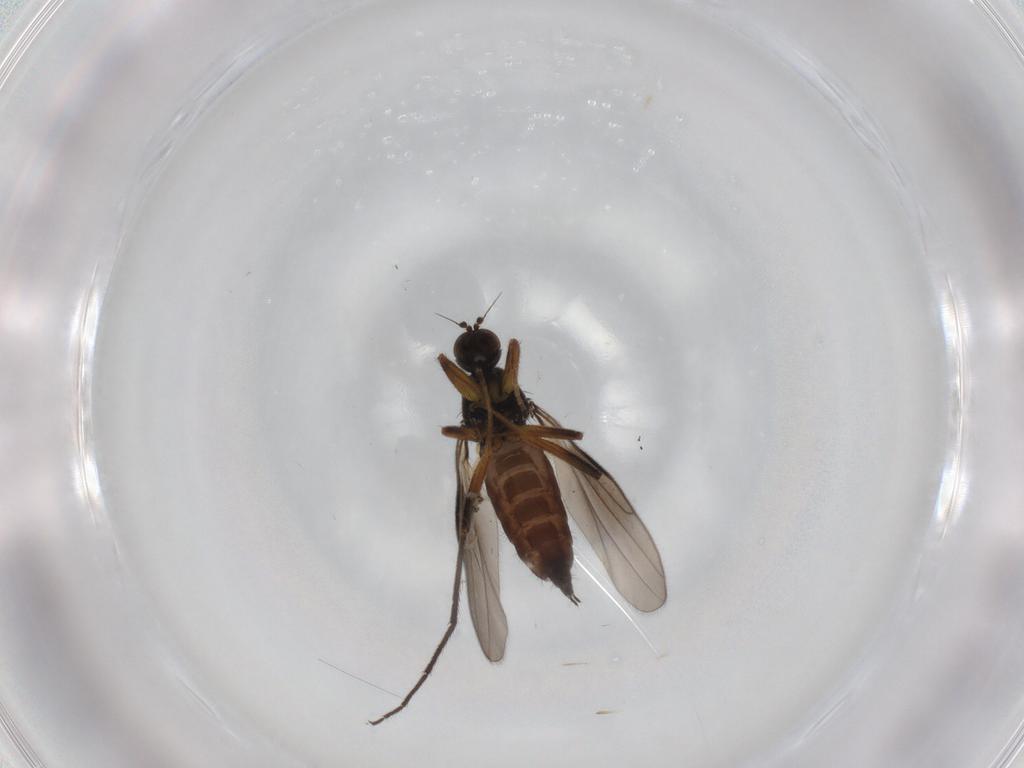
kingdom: Animalia
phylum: Arthropoda
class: Insecta
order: Diptera
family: Hybotidae
